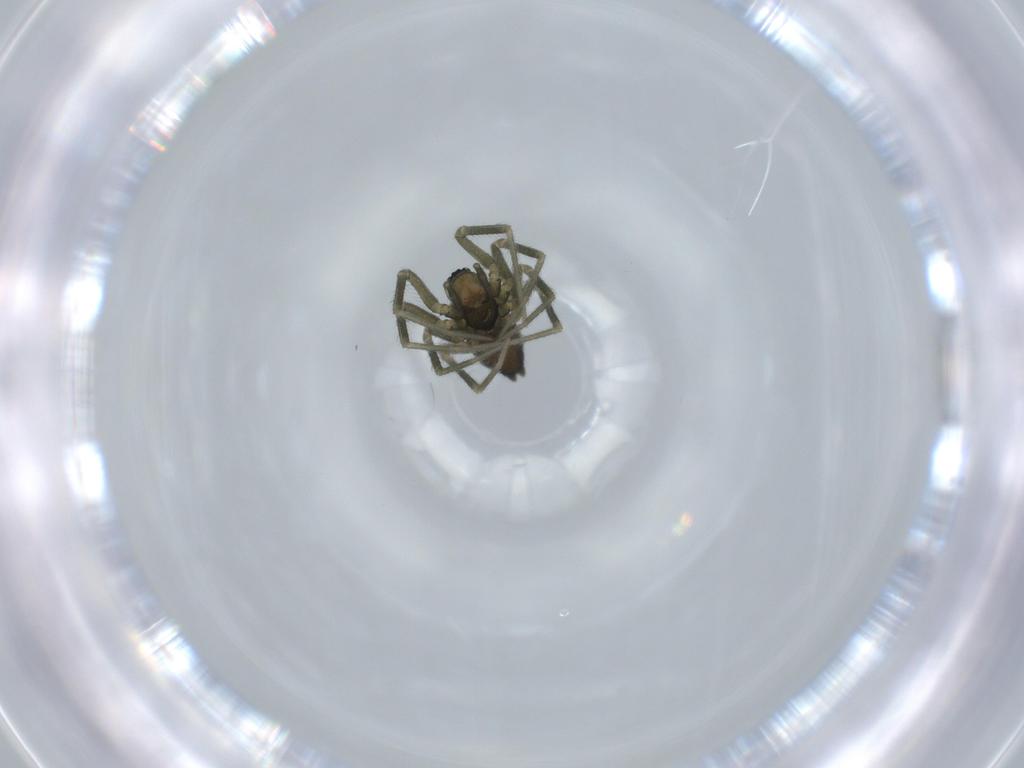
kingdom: Animalia
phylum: Arthropoda
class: Arachnida
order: Araneae
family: Linyphiidae
